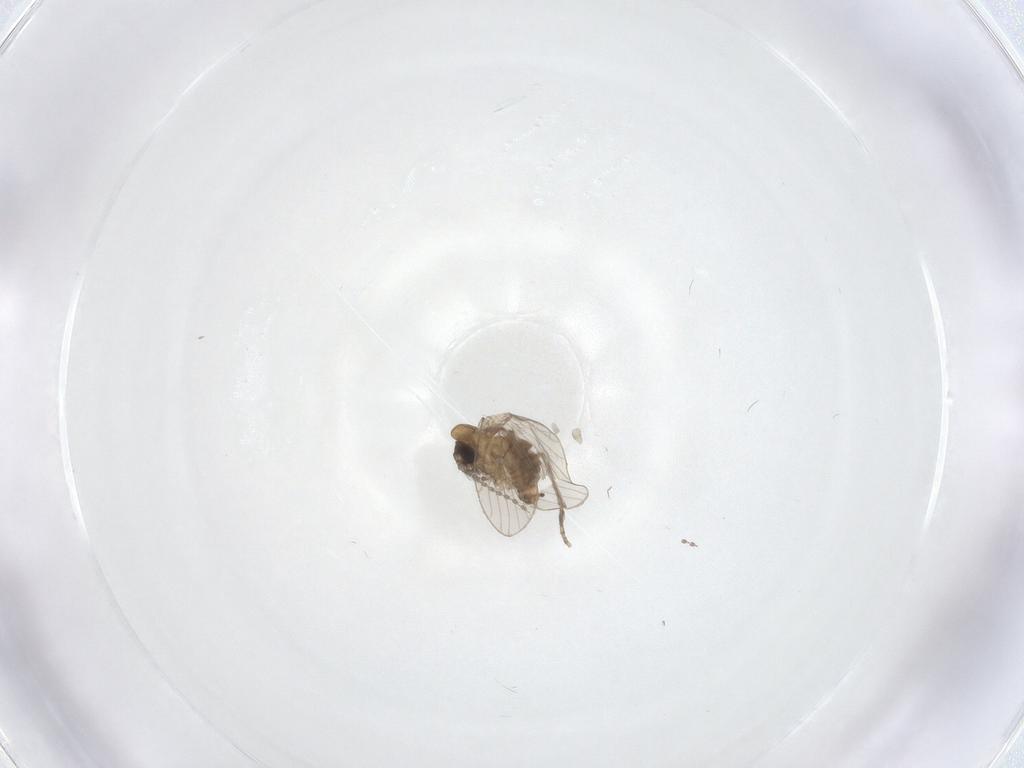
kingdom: Animalia
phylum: Arthropoda
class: Insecta
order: Diptera
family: Psychodidae
